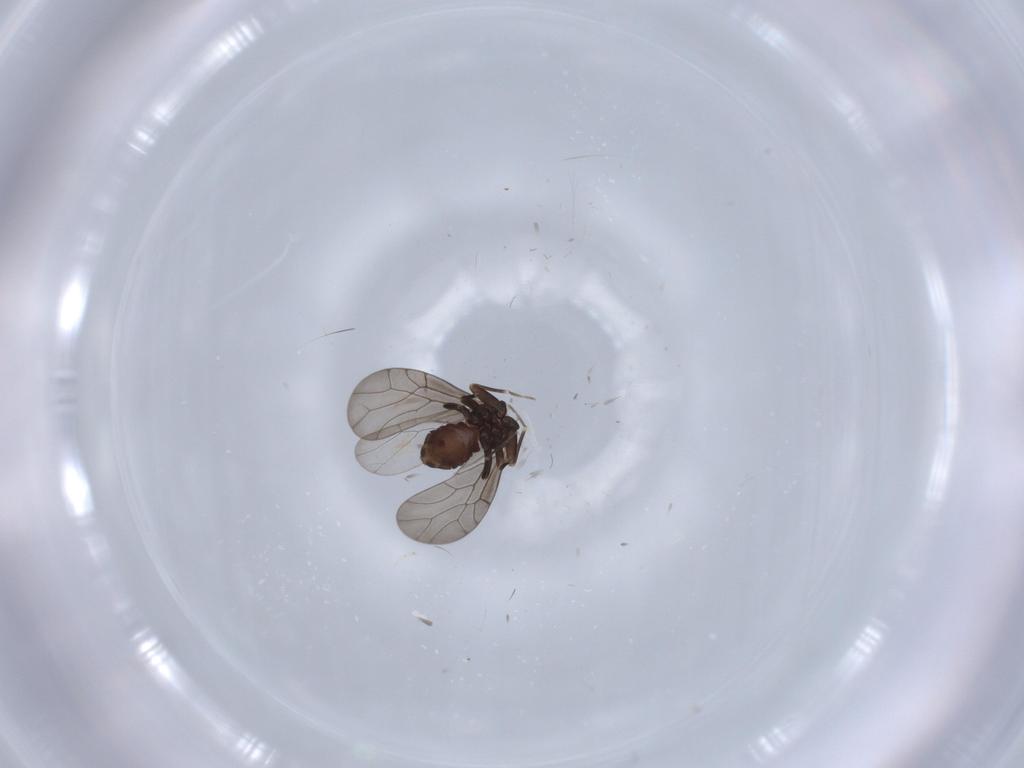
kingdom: Animalia
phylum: Arthropoda
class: Insecta
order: Psocodea
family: Lepidopsocidae
